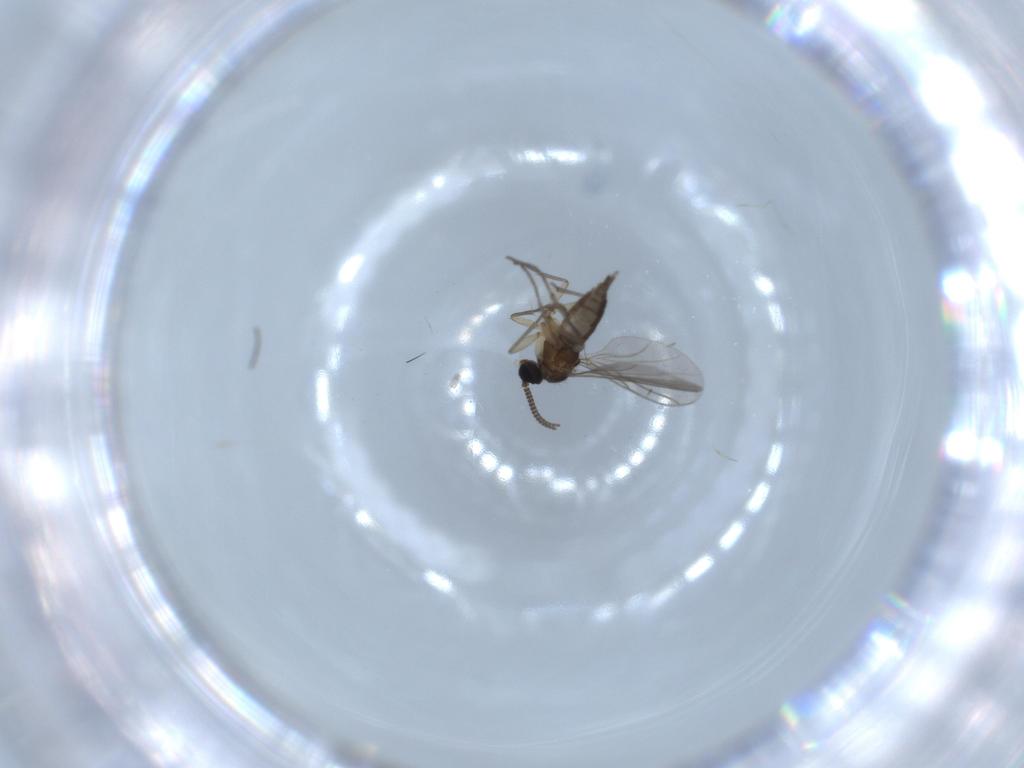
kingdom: Animalia
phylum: Arthropoda
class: Insecta
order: Diptera
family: Sciaridae
